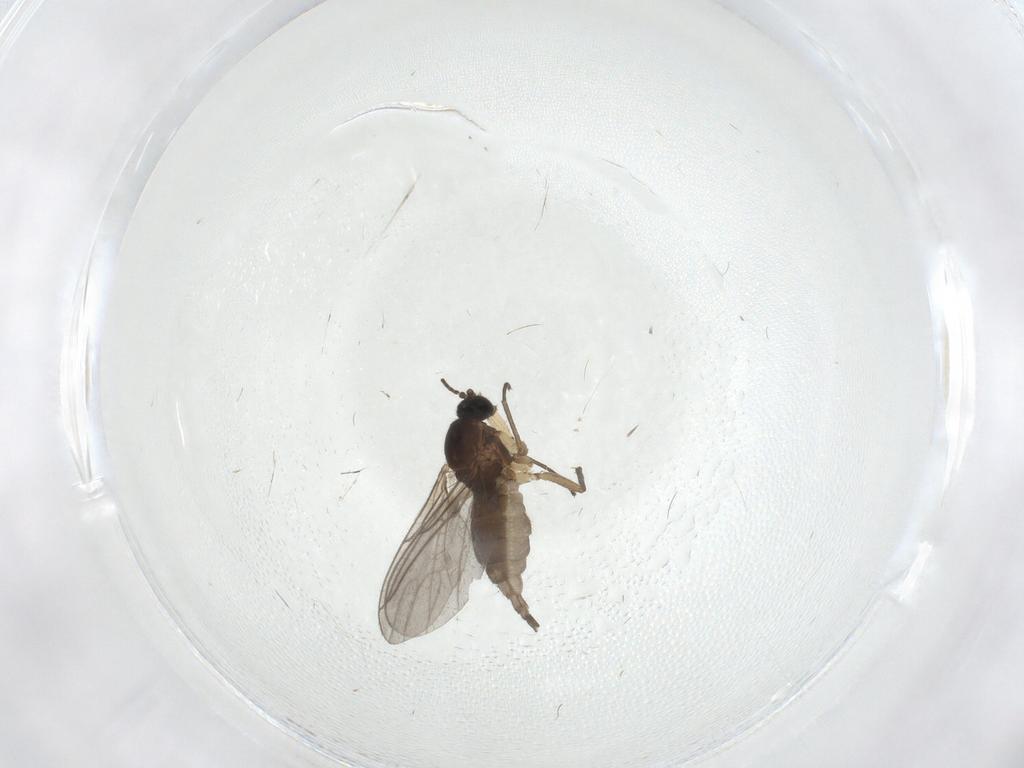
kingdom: Animalia
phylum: Arthropoda
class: Insecta
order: Diptera
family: Sciaridae
